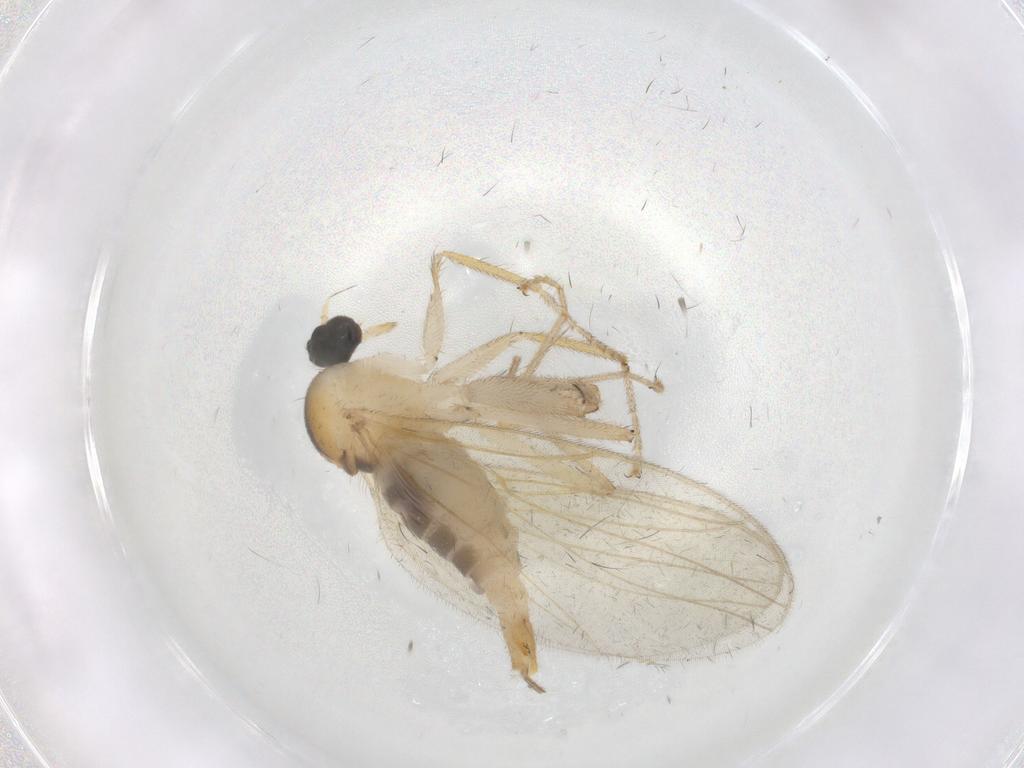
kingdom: Animalia
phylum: Arthropoda
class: Insecta
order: Diptera
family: Hybotidae
